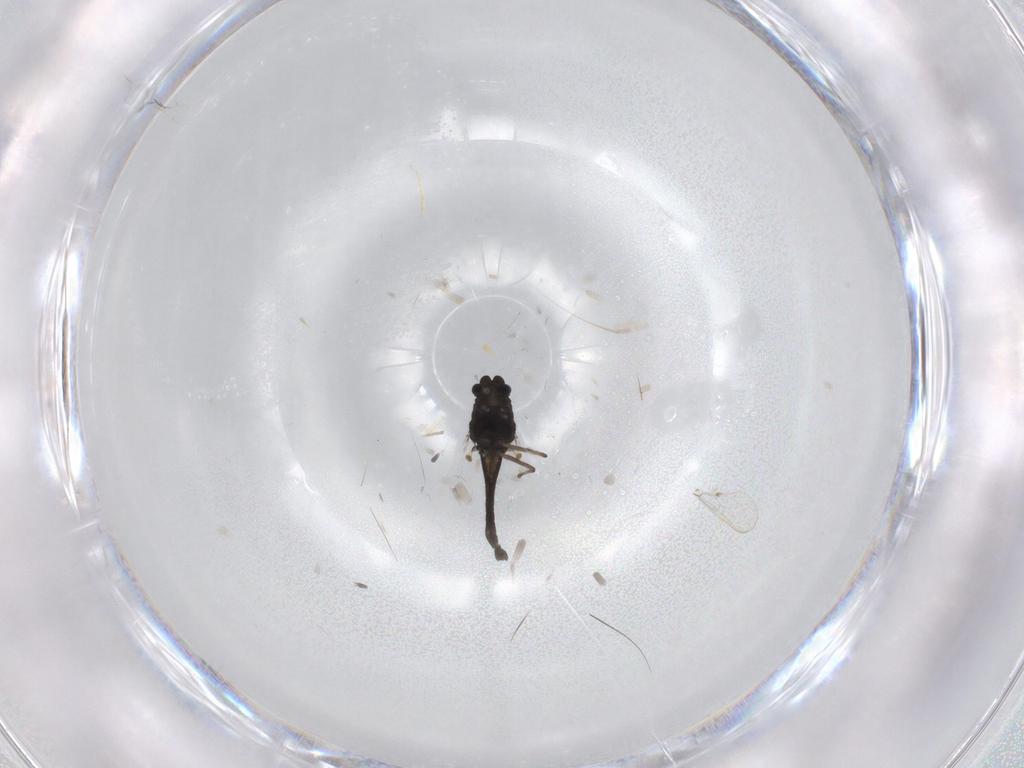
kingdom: Animalia
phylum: Arthropoda
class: Insecta
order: Diptera
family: Chironomidae
